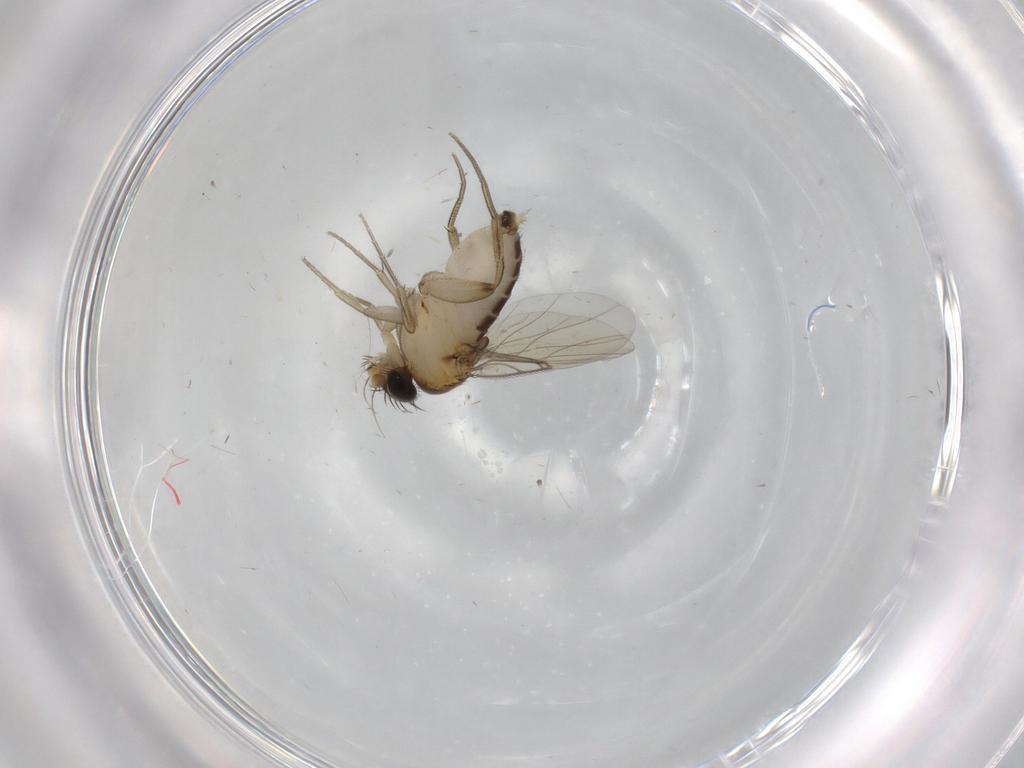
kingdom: Animalia
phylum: Arthropoda
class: Insecta
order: Diptera
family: Phoridae
